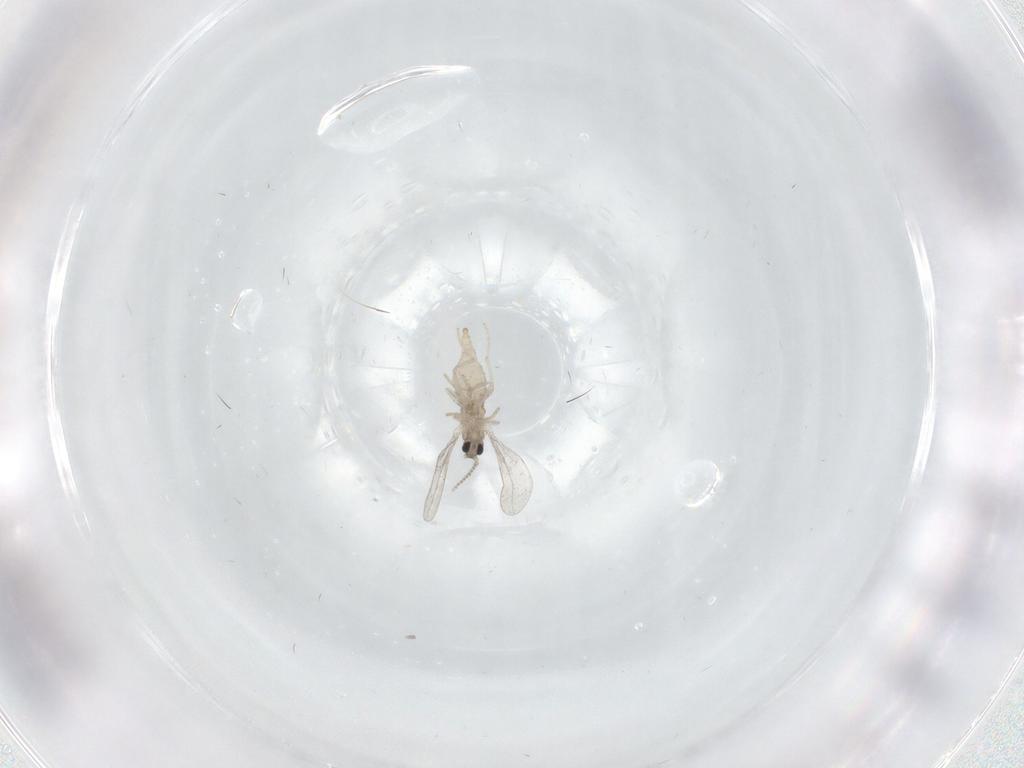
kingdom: Animalia
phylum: Arthropoda
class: Insecta
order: Diptera
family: Cecidomyiidae
